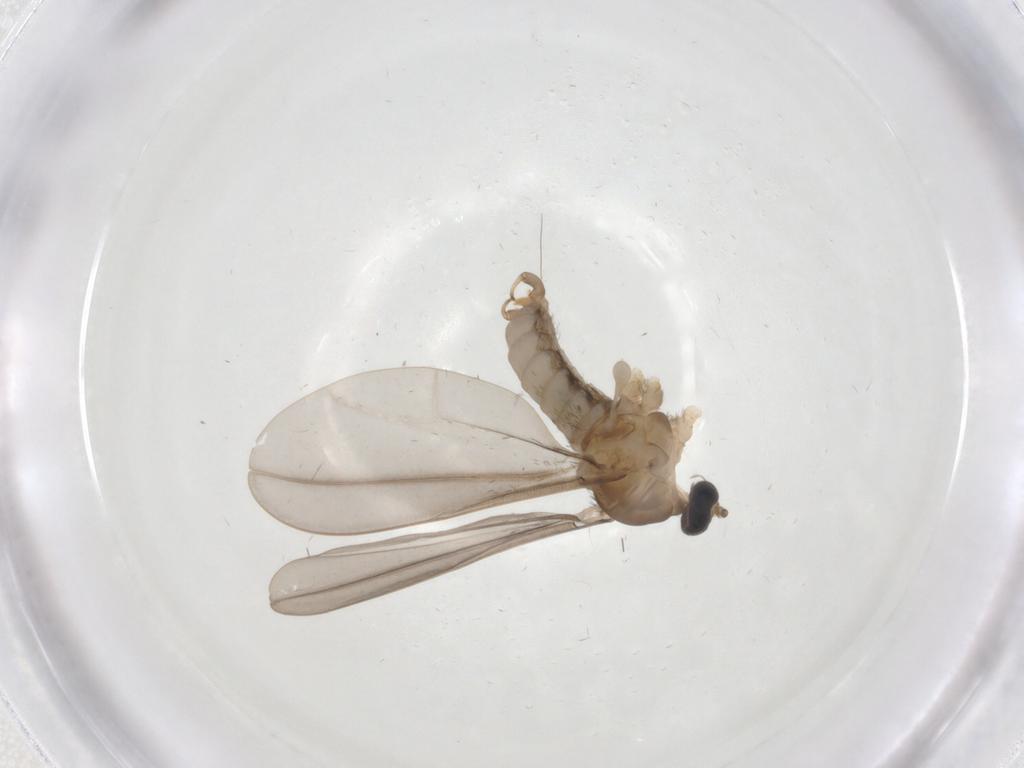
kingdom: Animalia
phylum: Arthropoda
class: Insecta
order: Diptera
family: Cecidomyiidae
